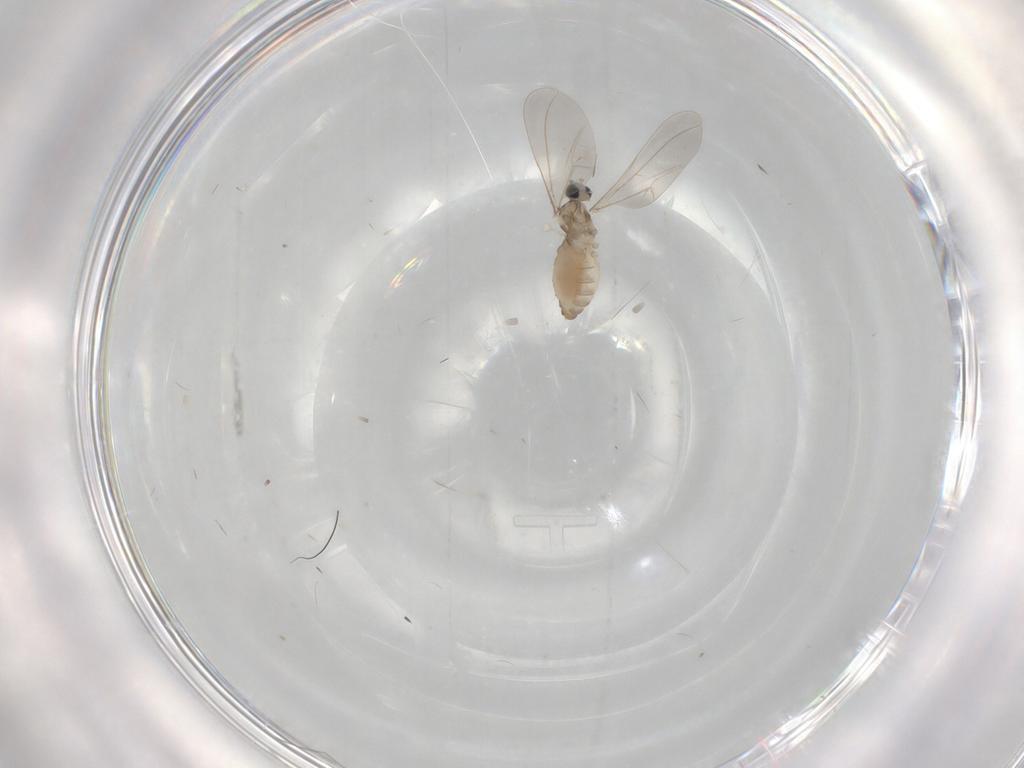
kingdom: Animalia
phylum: Arthropoda
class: Insecta
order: Diptera
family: Cecidomyiidae
